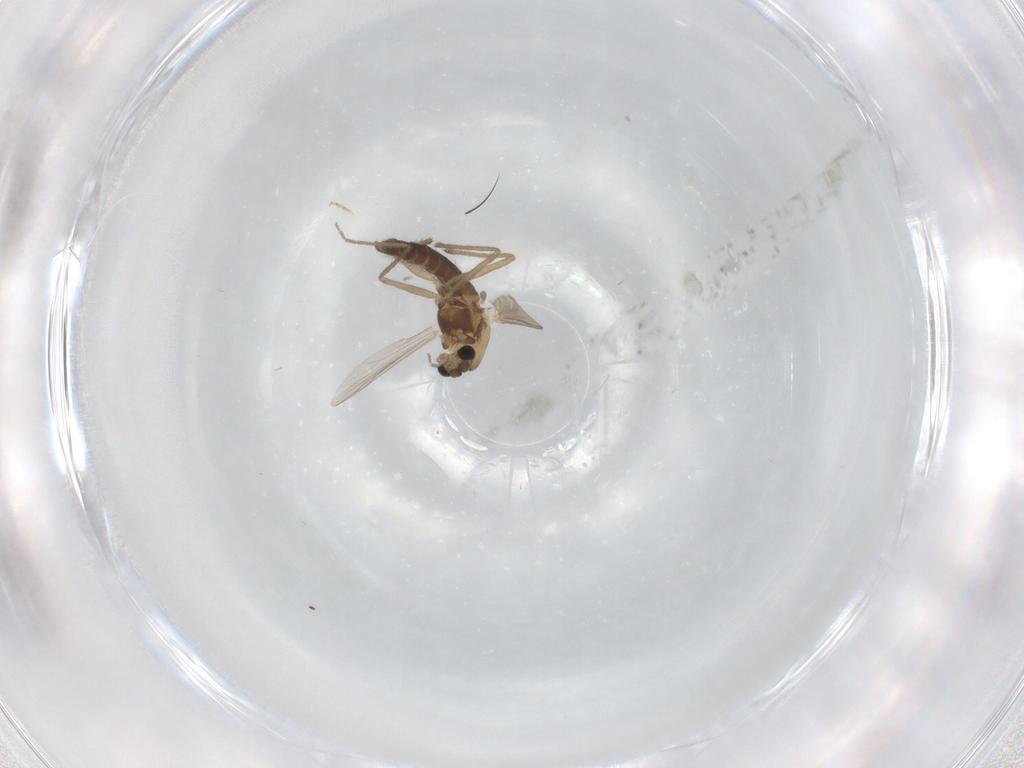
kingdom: Animalia
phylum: Arthropoda
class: Insecta
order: Diptera
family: Chironomidae
